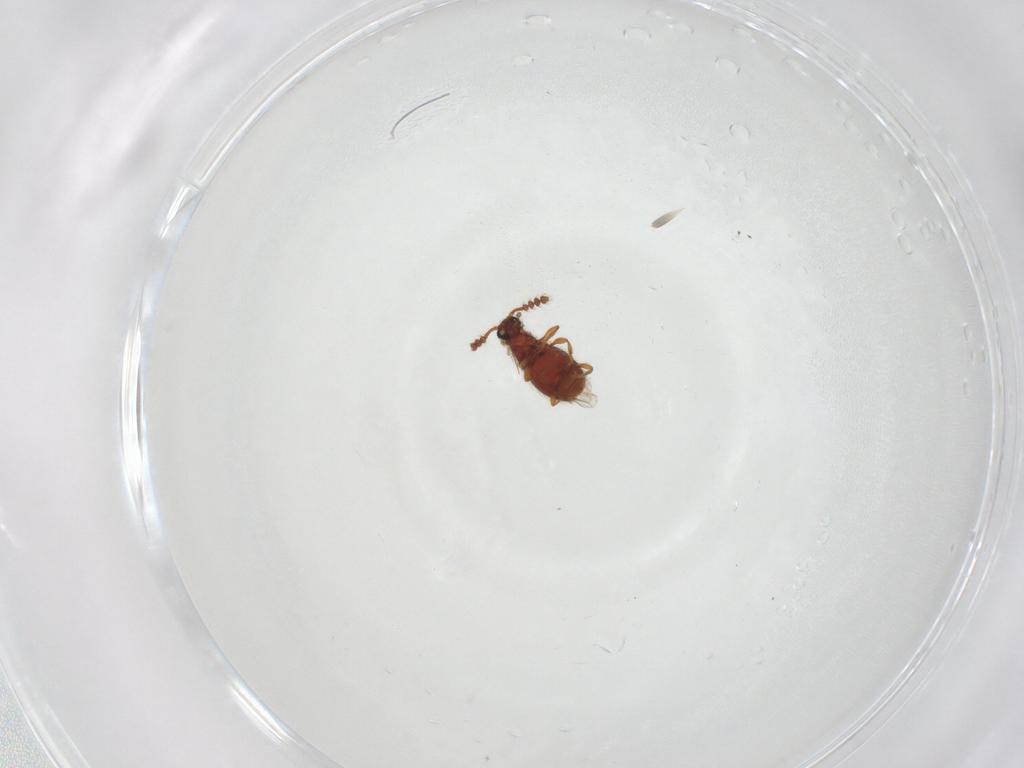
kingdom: Animalia
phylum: Arthropoda
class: Insecta
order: Coleoptera
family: Staphylinidae
